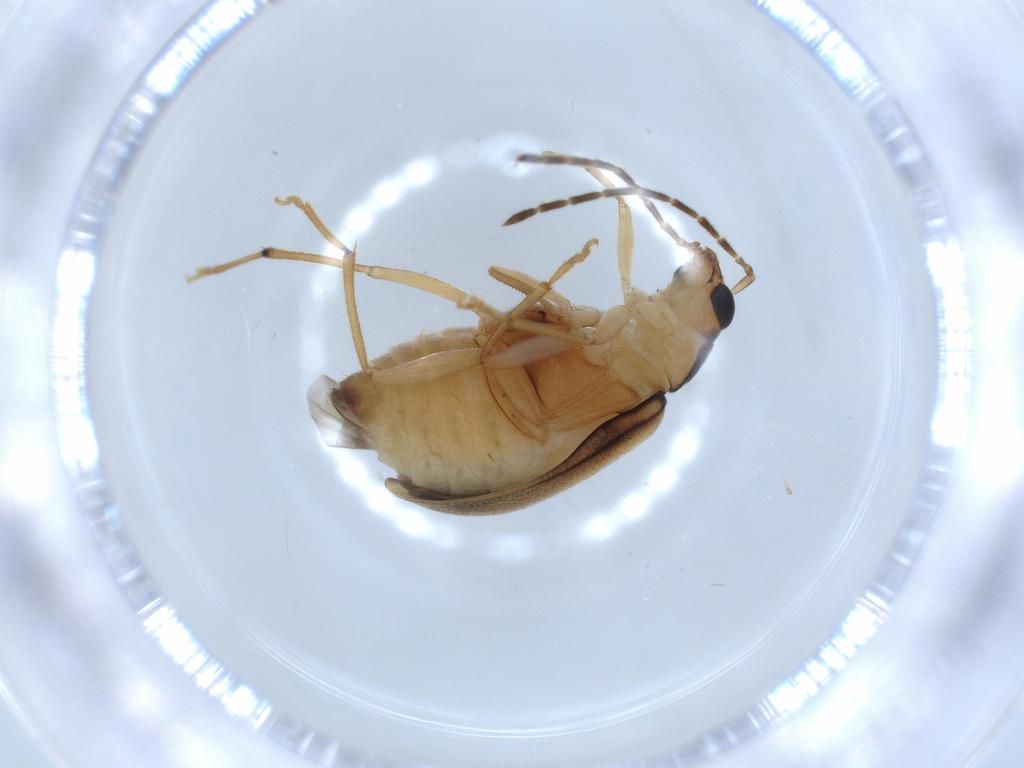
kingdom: Animalia
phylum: Arthropoda
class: Insecta
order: Coleoptera
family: Chrysomelidae
